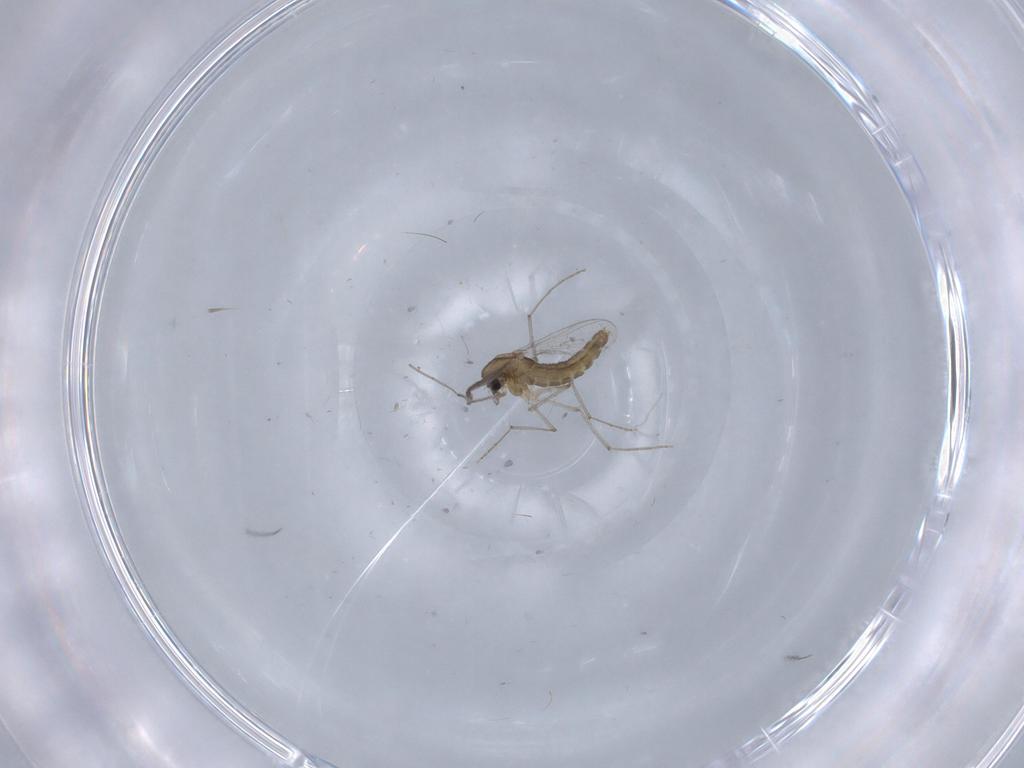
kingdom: Animalia
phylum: Arthropoda
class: Insecta
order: Diptera
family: Chironomidae
